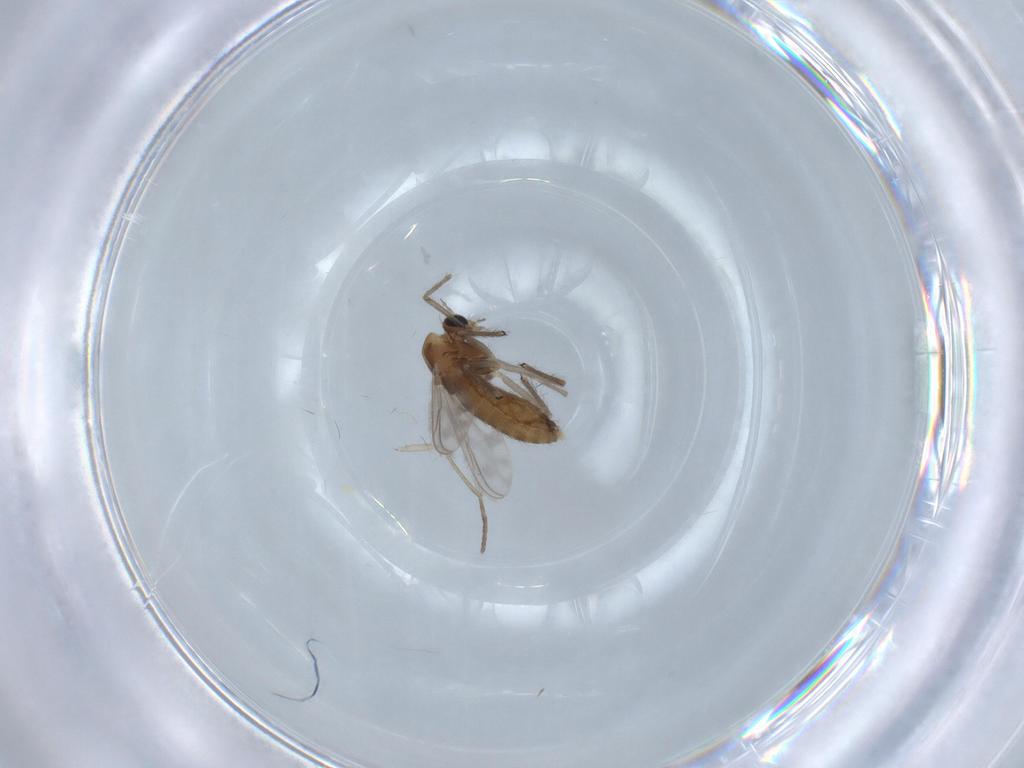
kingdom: Animalia
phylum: Arthropoda
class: Insecta
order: Diptera
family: Chironomidae
